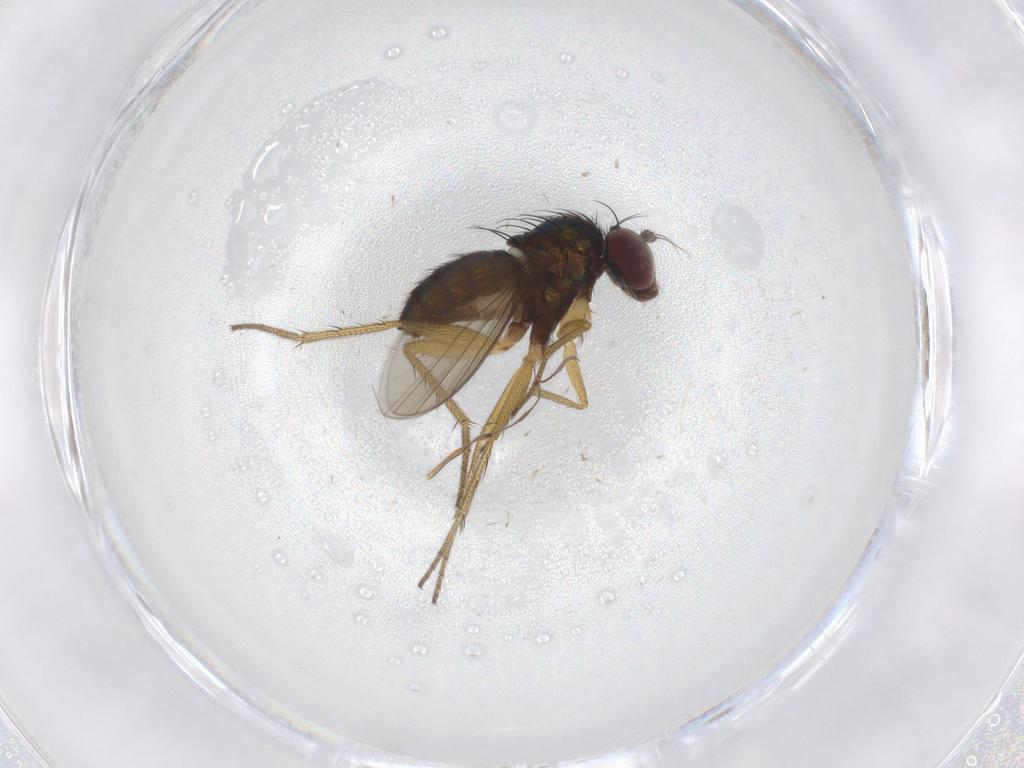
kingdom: Animalia
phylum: Arthropoda
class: Insecta
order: Diptera
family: Dolichopodidae
